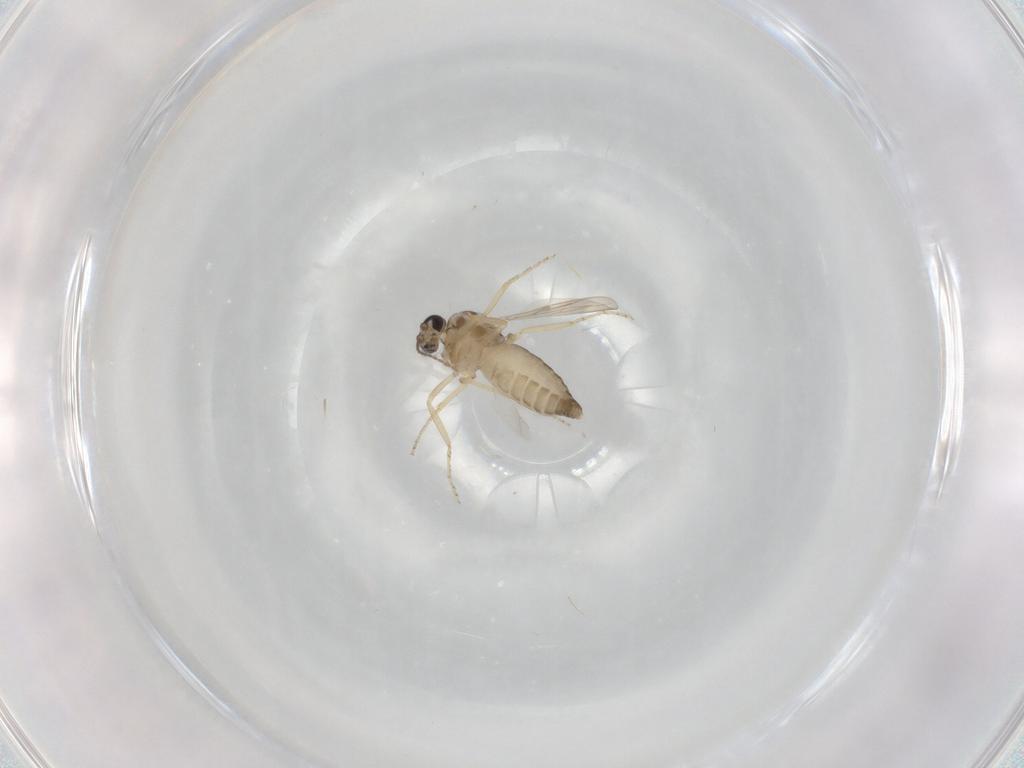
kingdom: Animalia
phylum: Arthropoda
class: Insecta
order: Diptera
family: Ceratopogonidae
